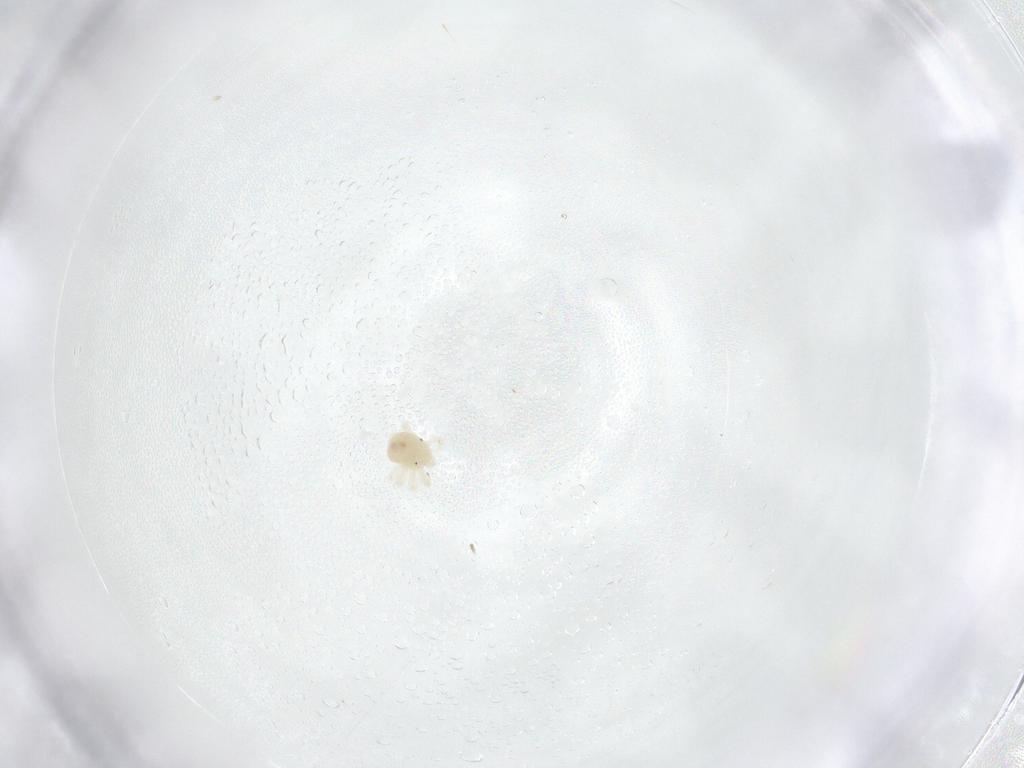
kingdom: Animalia
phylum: Arthropoda
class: Arachnida
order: Trombidiformes
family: Anystidae
